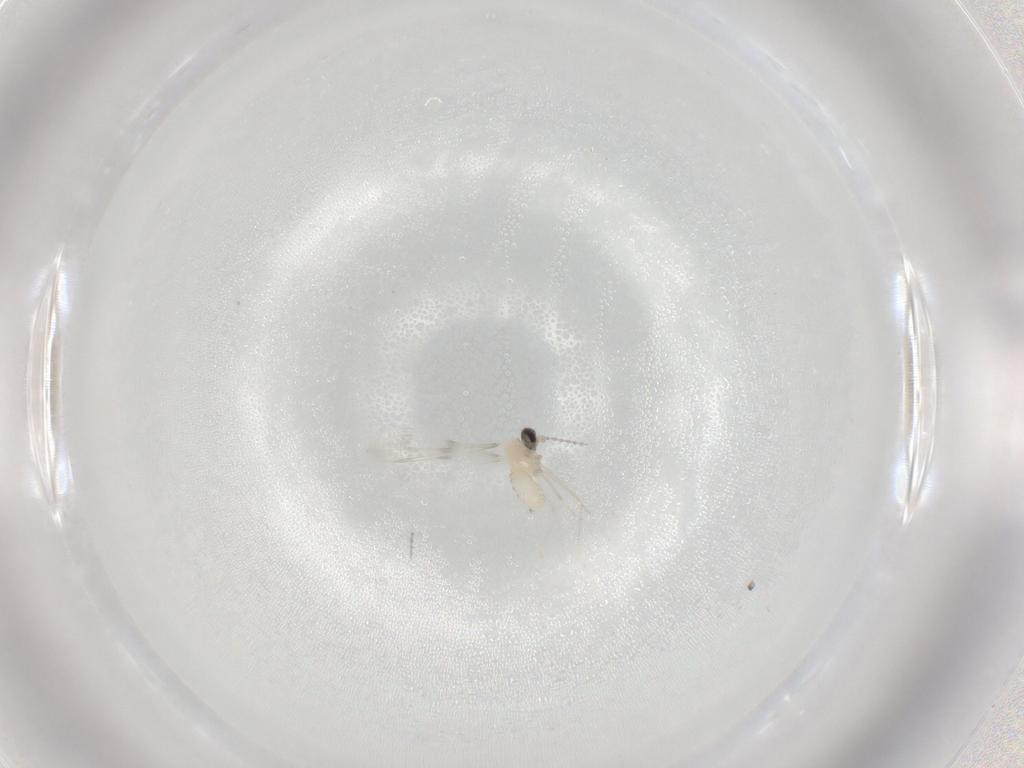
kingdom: Animalia
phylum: Arthropoda
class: Insecta
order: Diptera
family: Cecidomyiidae
